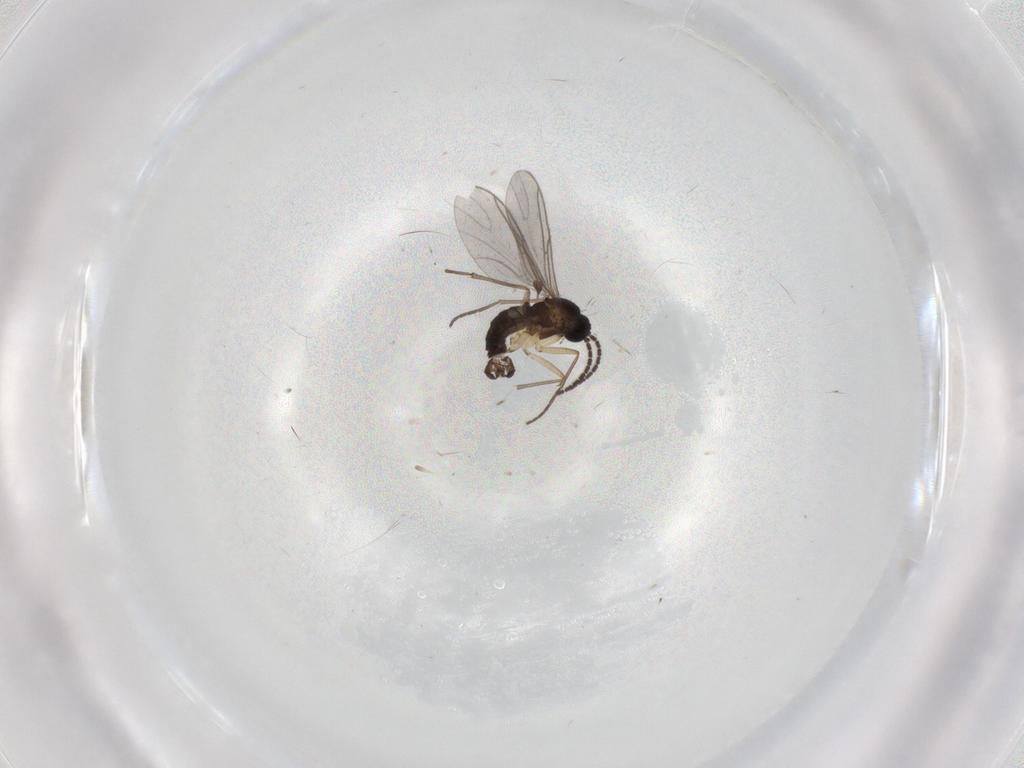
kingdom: Animalia
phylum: Arthropoda
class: Insecta
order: Diptera
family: Sciaridae
